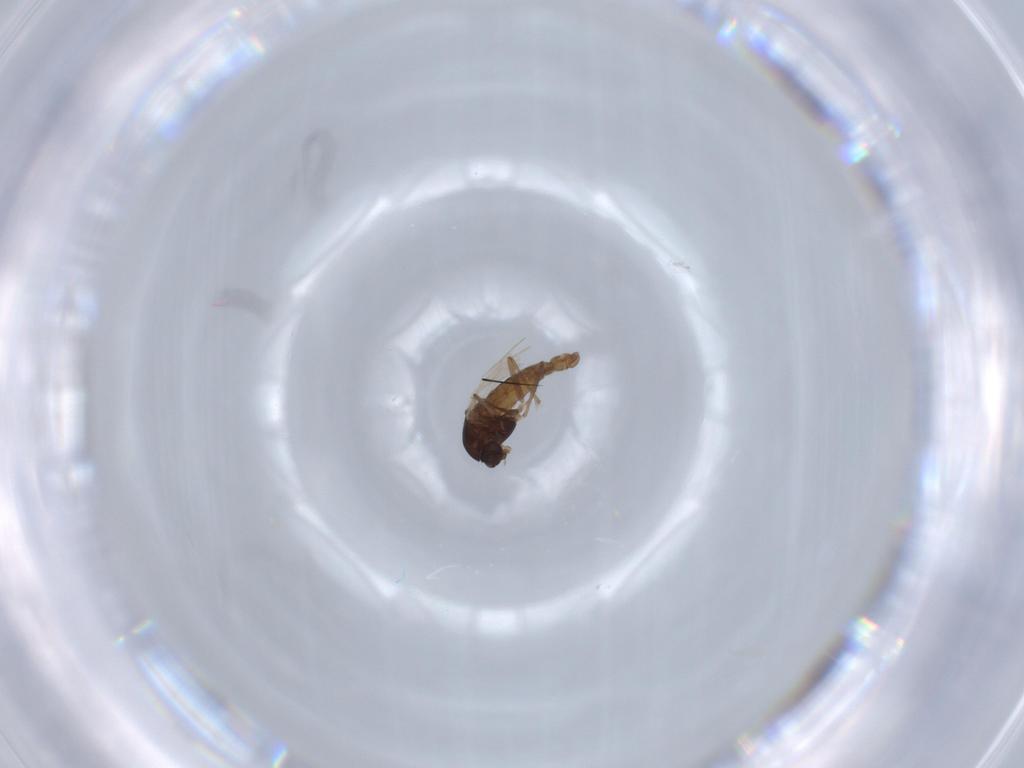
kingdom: Animalia
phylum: Arthropoda
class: Insecta
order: Diptera
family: Chironomidae
